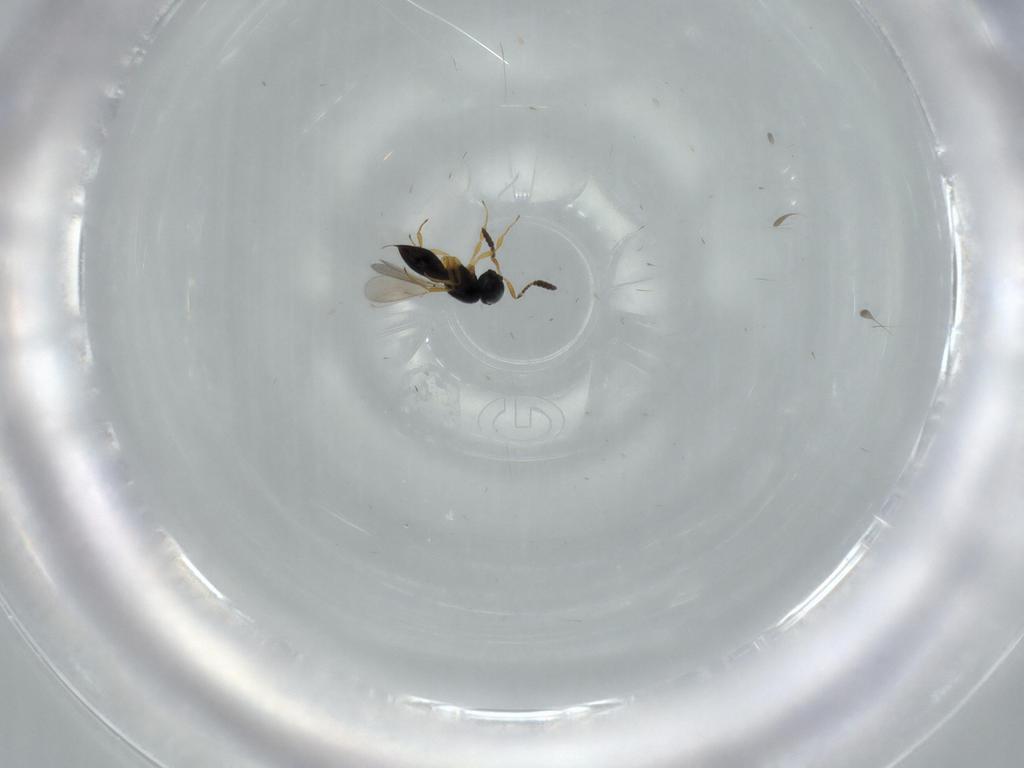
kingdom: Animalia
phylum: Arthropoda
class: Insecta
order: Hymenoptera
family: Scelionidae
